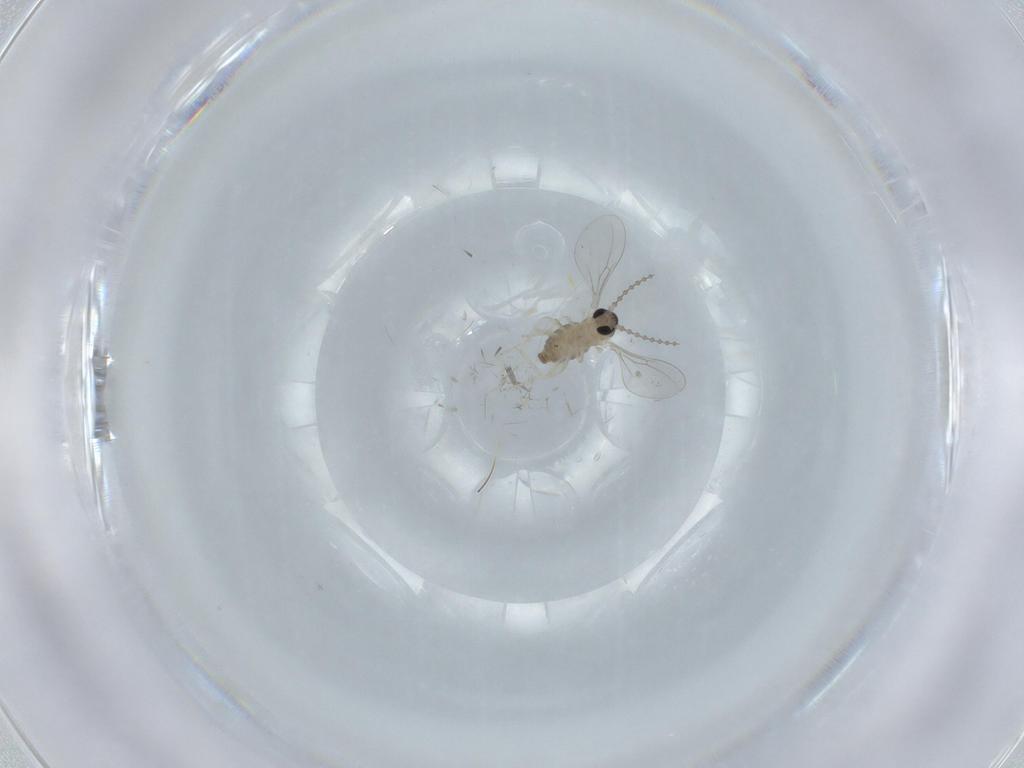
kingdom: Animalia
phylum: Arthropoda
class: Insecta
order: Diptera
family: Cecidomyiidae
